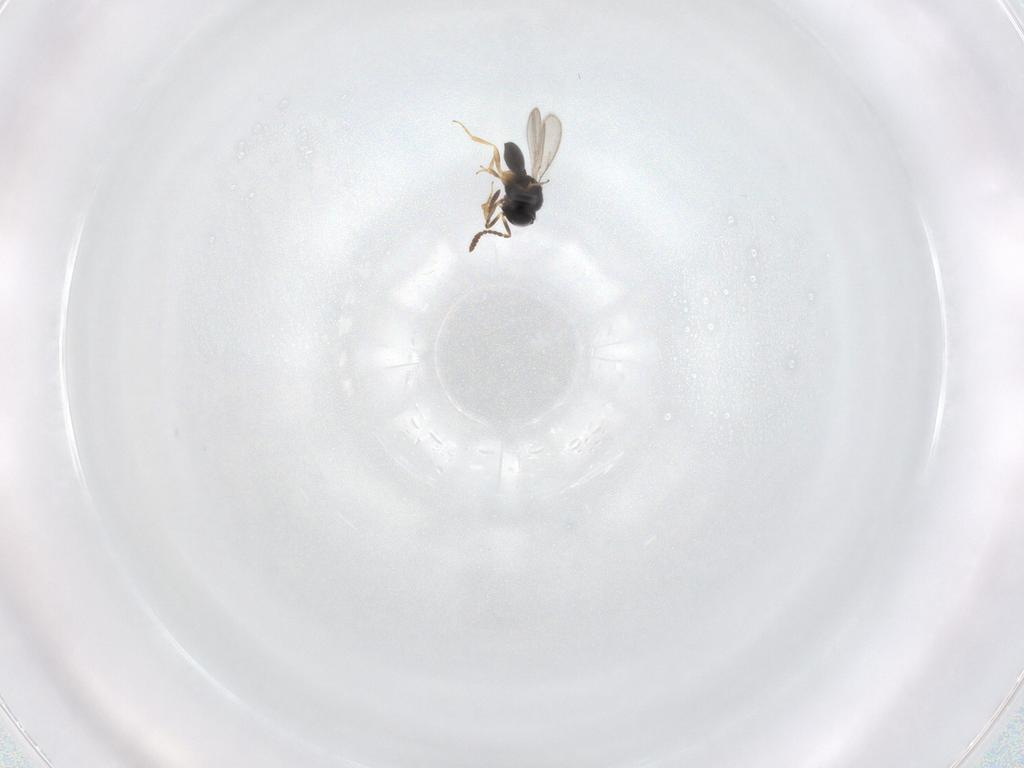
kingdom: Animalia
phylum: Arthropoda
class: Insecta
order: Hymenoptera
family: Scelionidae
